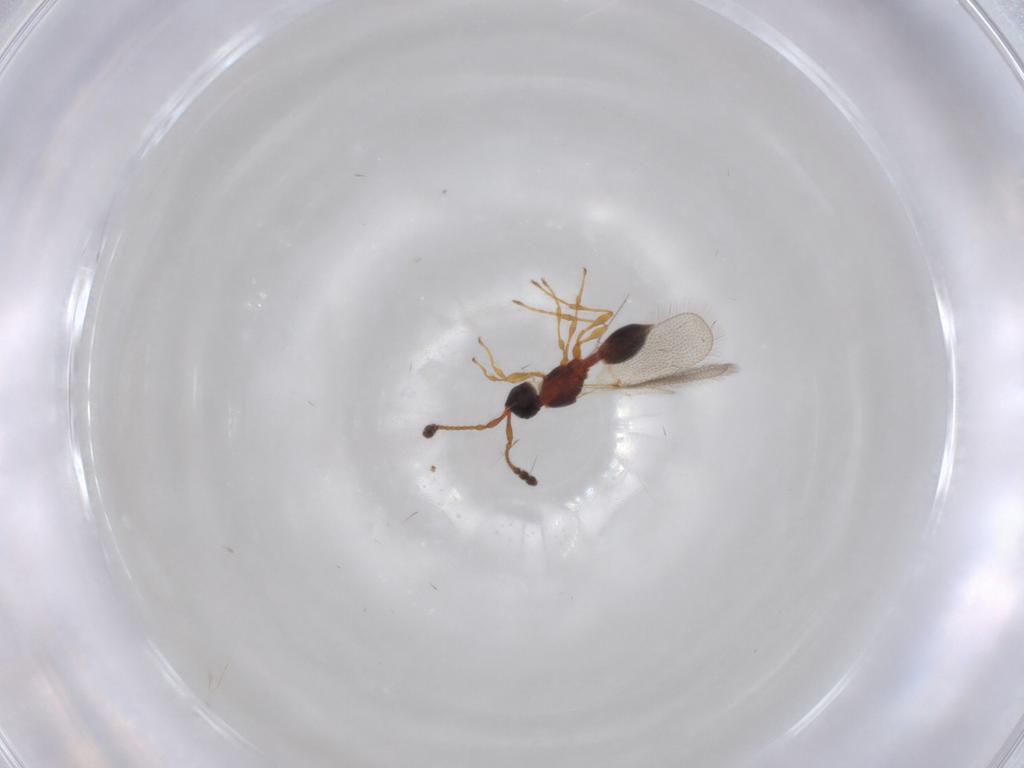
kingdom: Animalia
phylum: Arthropoda
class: Insecta
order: Hymenoptera
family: Diapriidae
